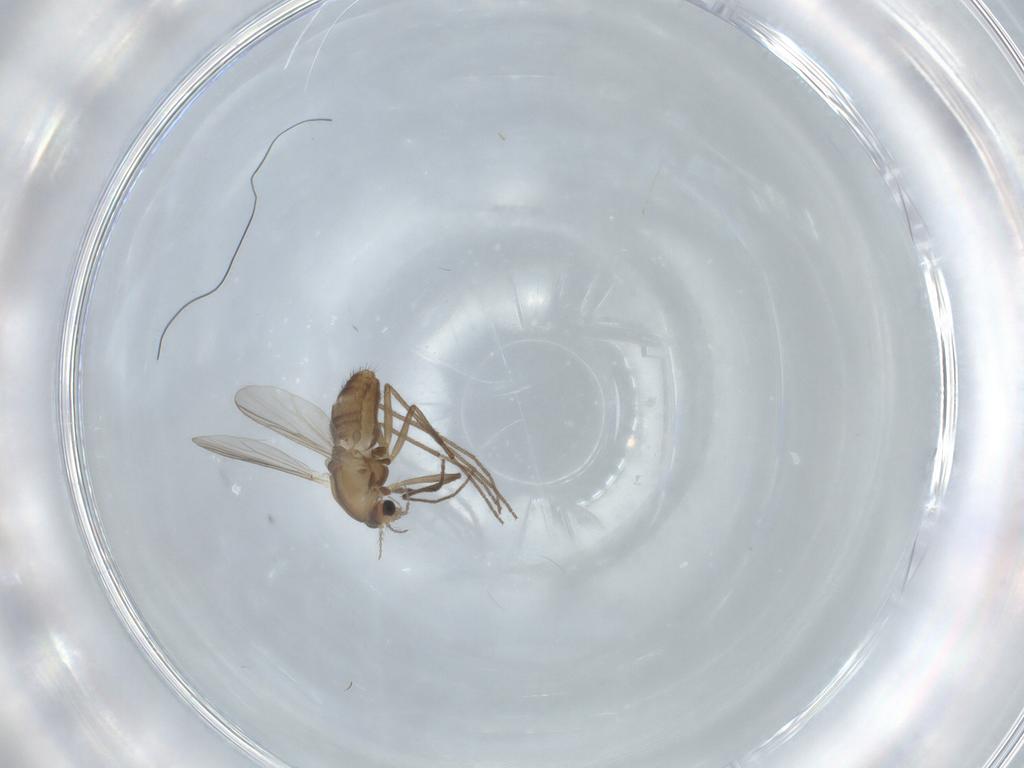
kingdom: Animalia
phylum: Arthropoda
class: Insecta
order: Diptera
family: Chironomidae
